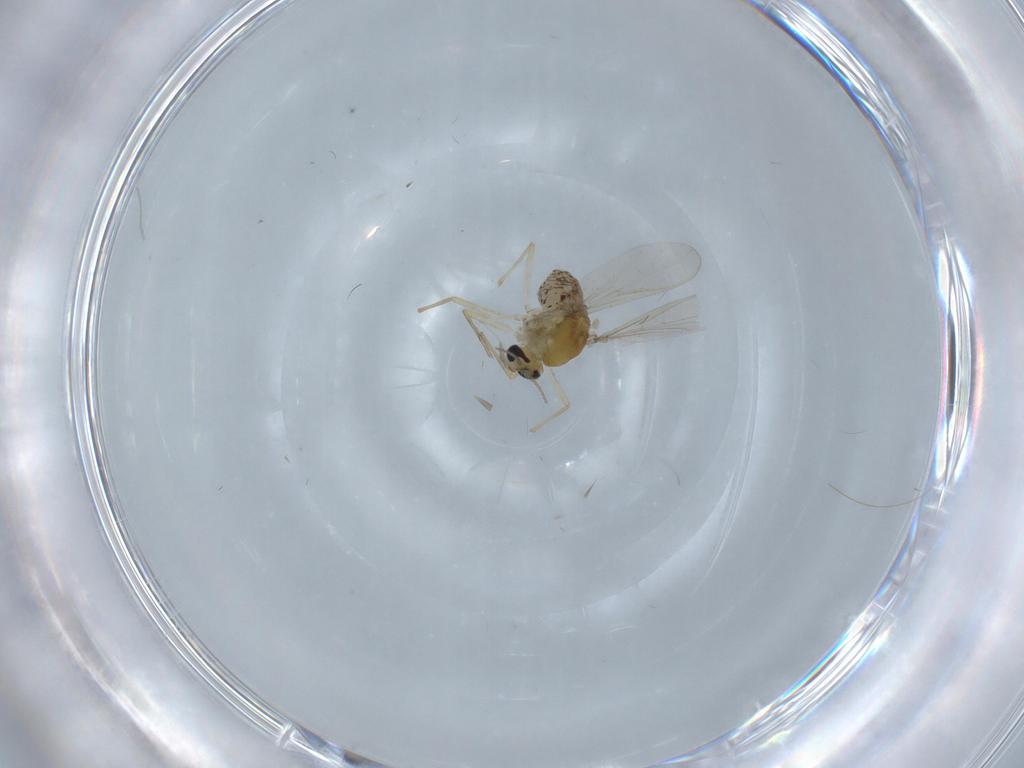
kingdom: Animalia
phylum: Arthropoda
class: Insecta
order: Diptera
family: Chironomidae
